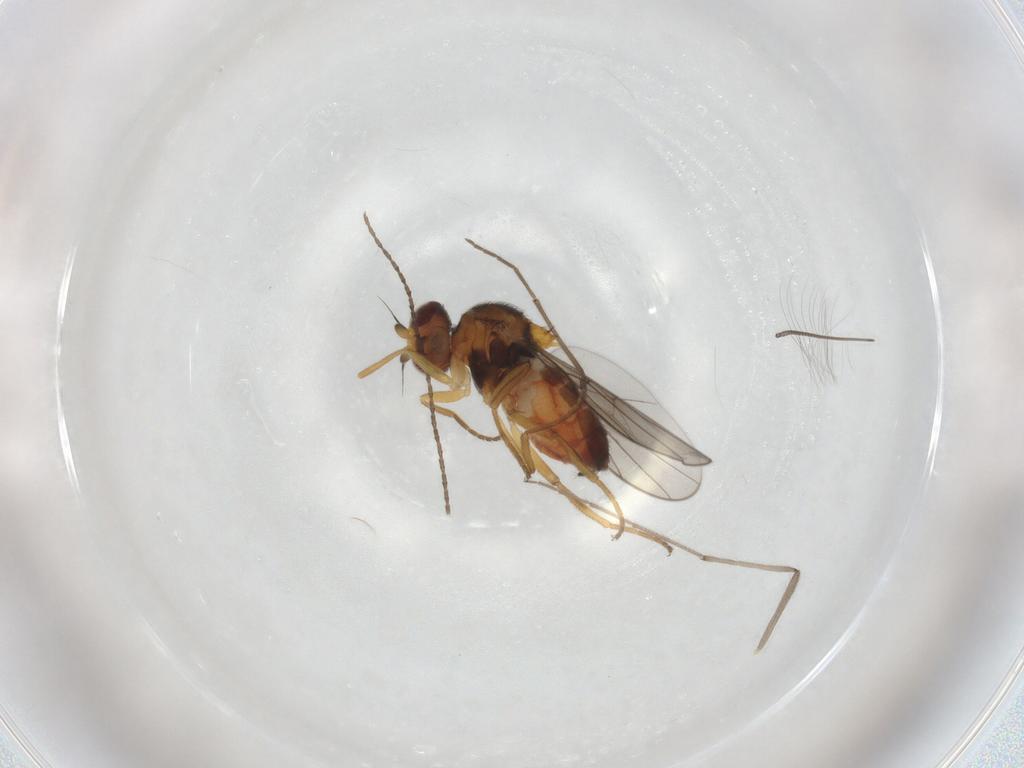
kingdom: Animalia
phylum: Arthropoda
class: Insecta
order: Diptera
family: Chloropidae
